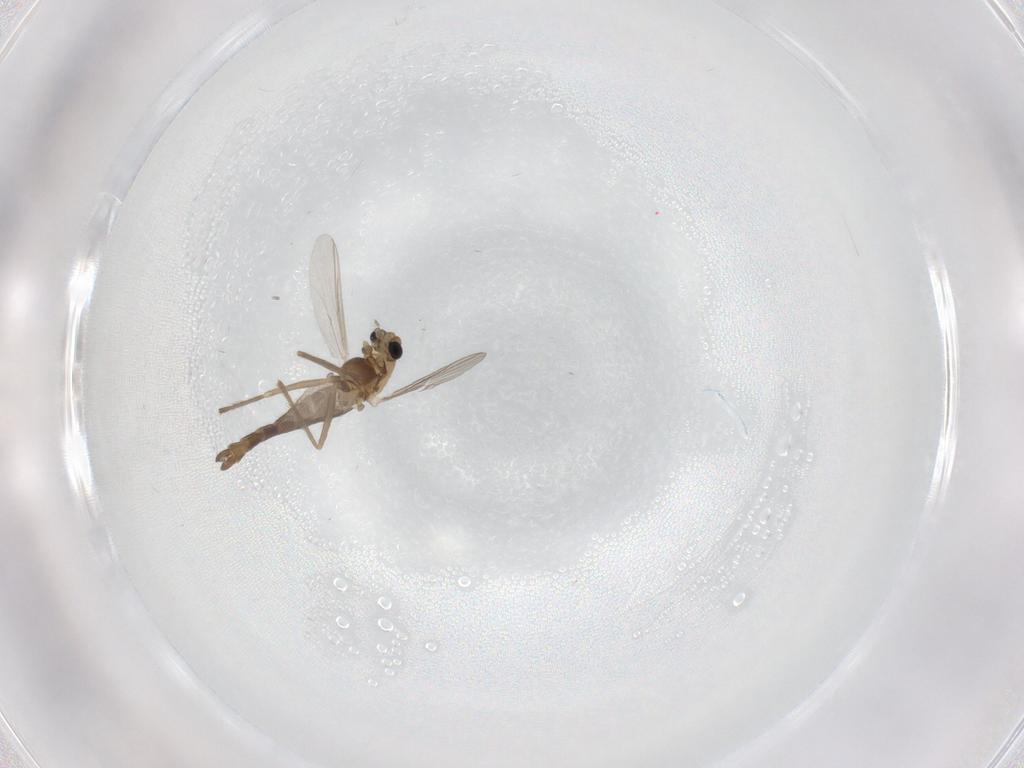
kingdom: Animalia
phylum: Arthropoda
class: Insecta
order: Diptera
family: Chironomidae
